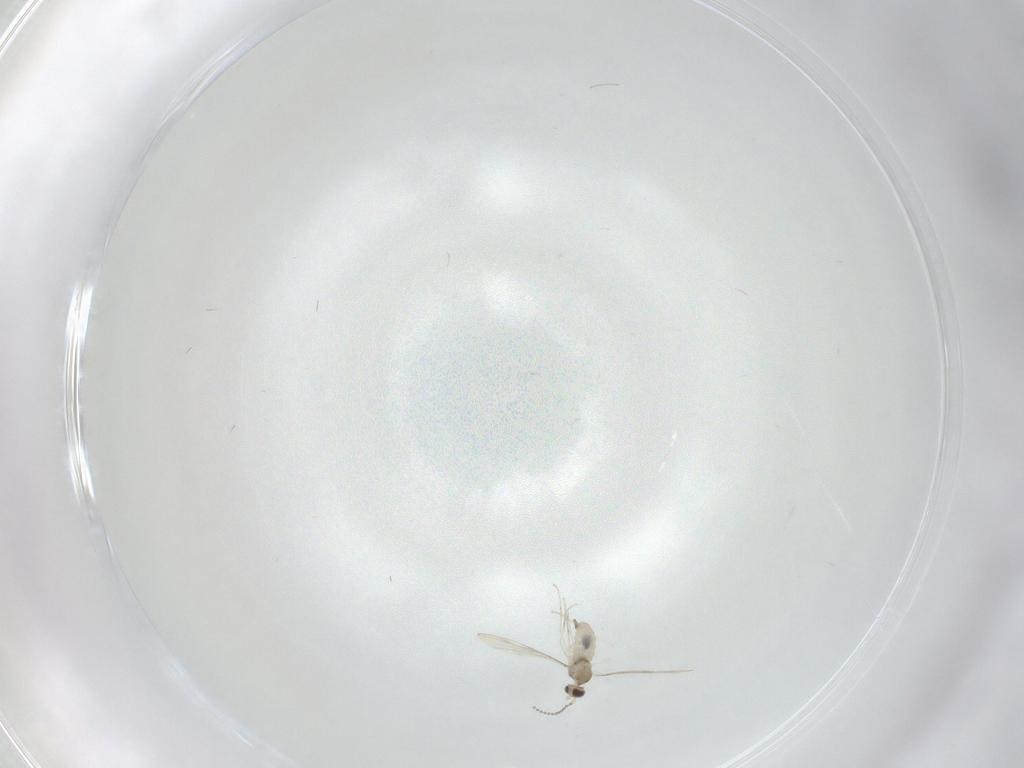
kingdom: Animalia
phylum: Arthropoda
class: Insecta
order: Diptera
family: Cecidomyiidae
